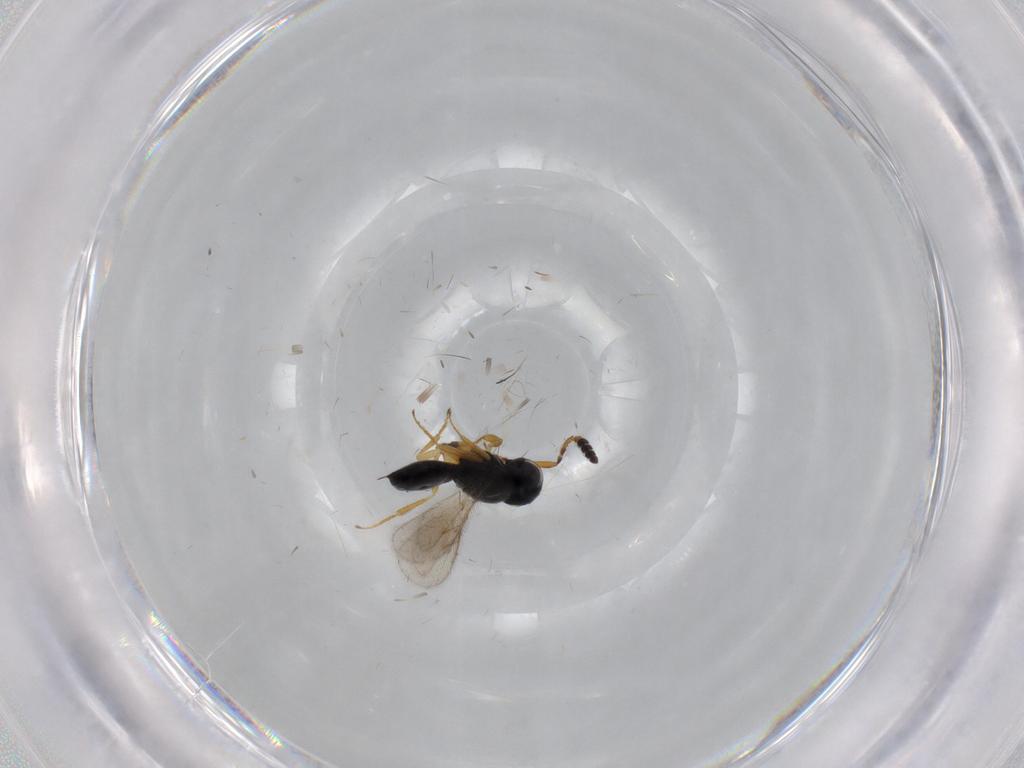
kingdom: Animalia
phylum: Arthropoda
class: Insecta
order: Hymenoptera
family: Scelionidae
